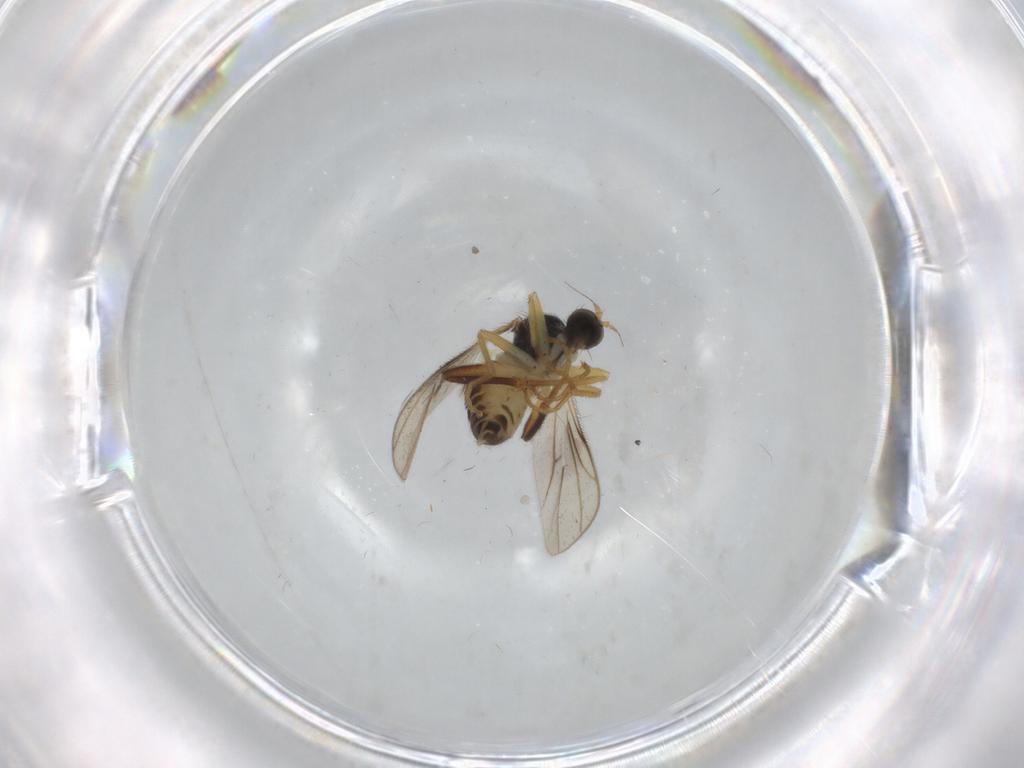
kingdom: Animalia
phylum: Arthropoda
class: Insecta
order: Diptera
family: Hybotidae
